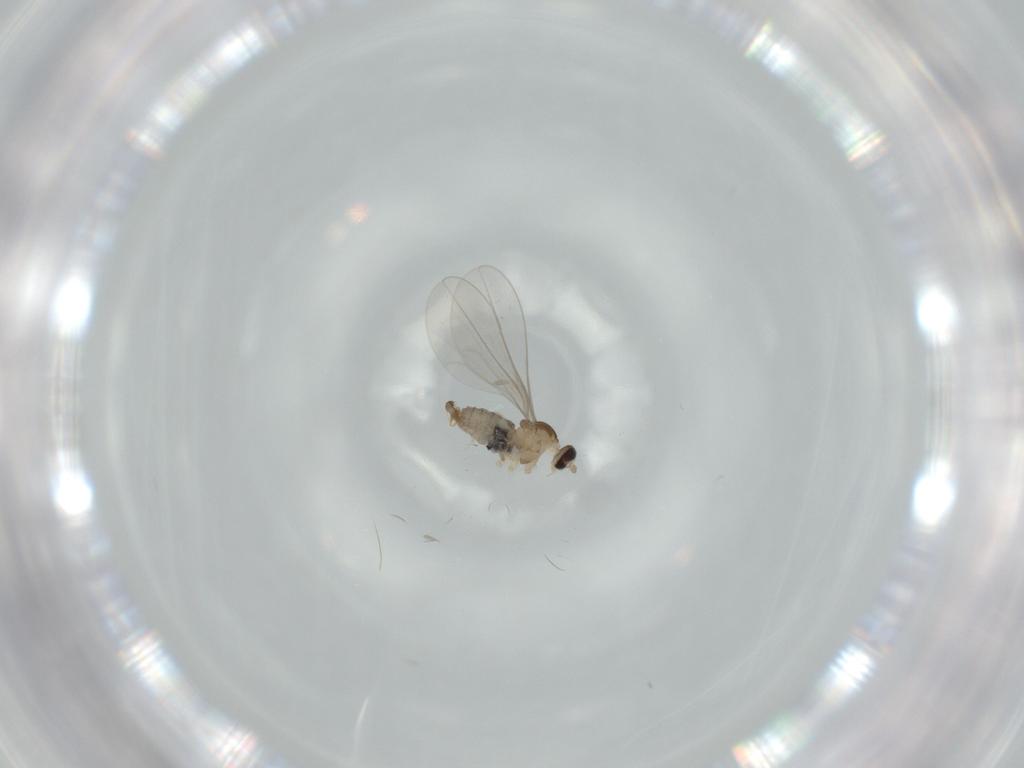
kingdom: Animalia
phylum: Arthropoda
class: Insecta
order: Diptera
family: Cecidomyiidae
